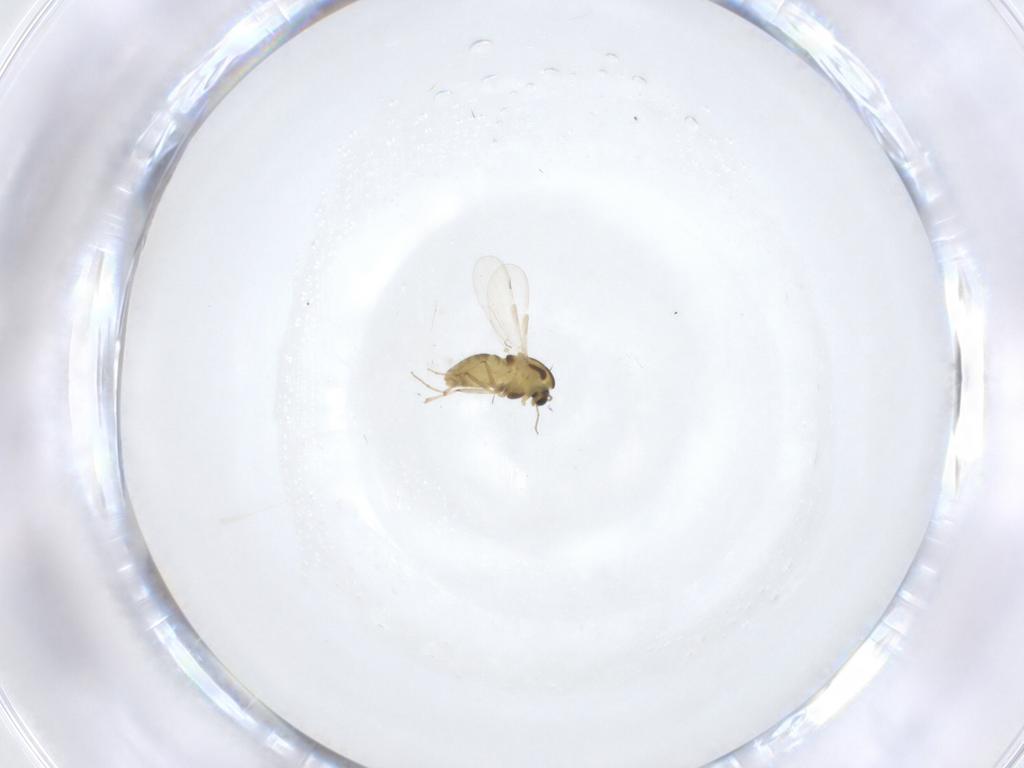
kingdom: Animalia
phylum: Arthropoda
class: Insecta
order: Diptera
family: Chironomidae
